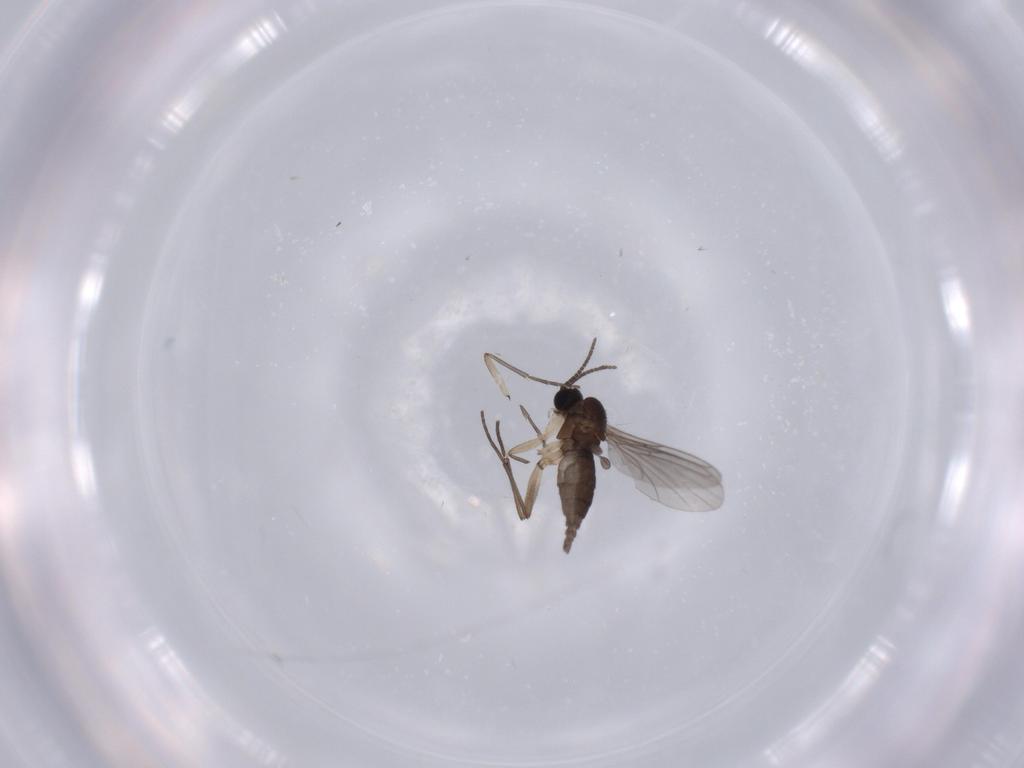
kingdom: Animalia
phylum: Arthropoda
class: Insecta
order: Diptera
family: Sciaridae
